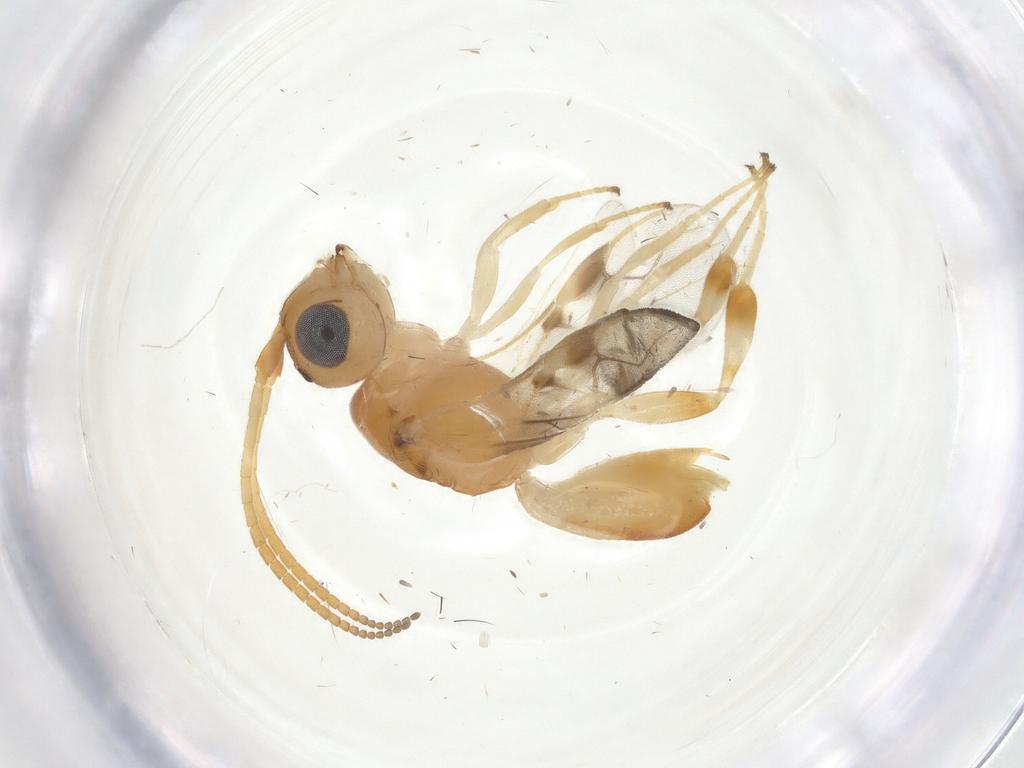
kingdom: Animalia
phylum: Arthropoda
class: Insecta
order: Hymenoptera
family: Braconidae
